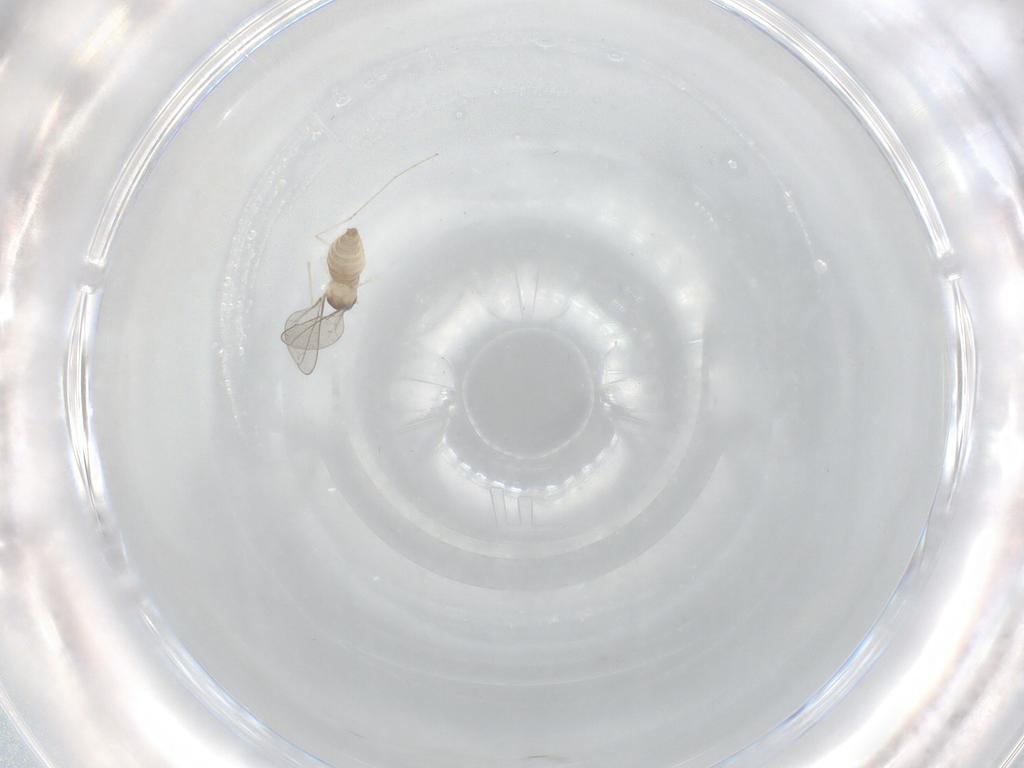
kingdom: Animalia
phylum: Arthropoda
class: Insecta
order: Diptera
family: Cecidomyiidae
